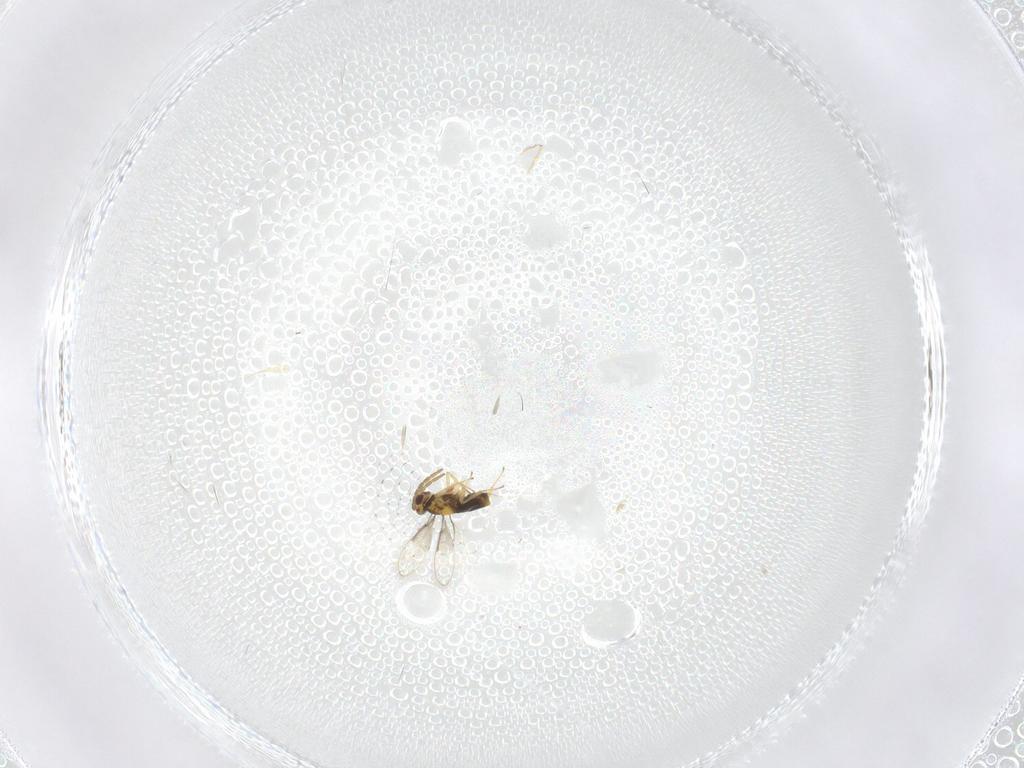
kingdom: Animalia
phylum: Arthropoda
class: Insecta
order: Hymenoptera
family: Aphelinidae
